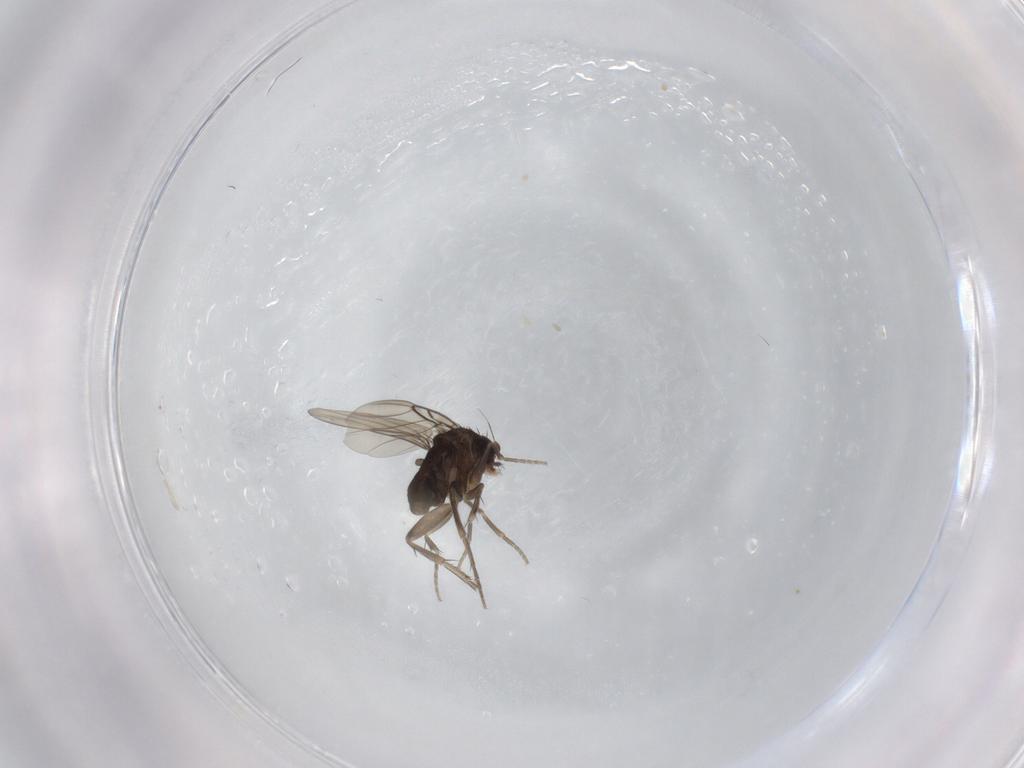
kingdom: Animalia
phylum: Arthropoda
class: Insecta
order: Diptera
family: Phoridae
